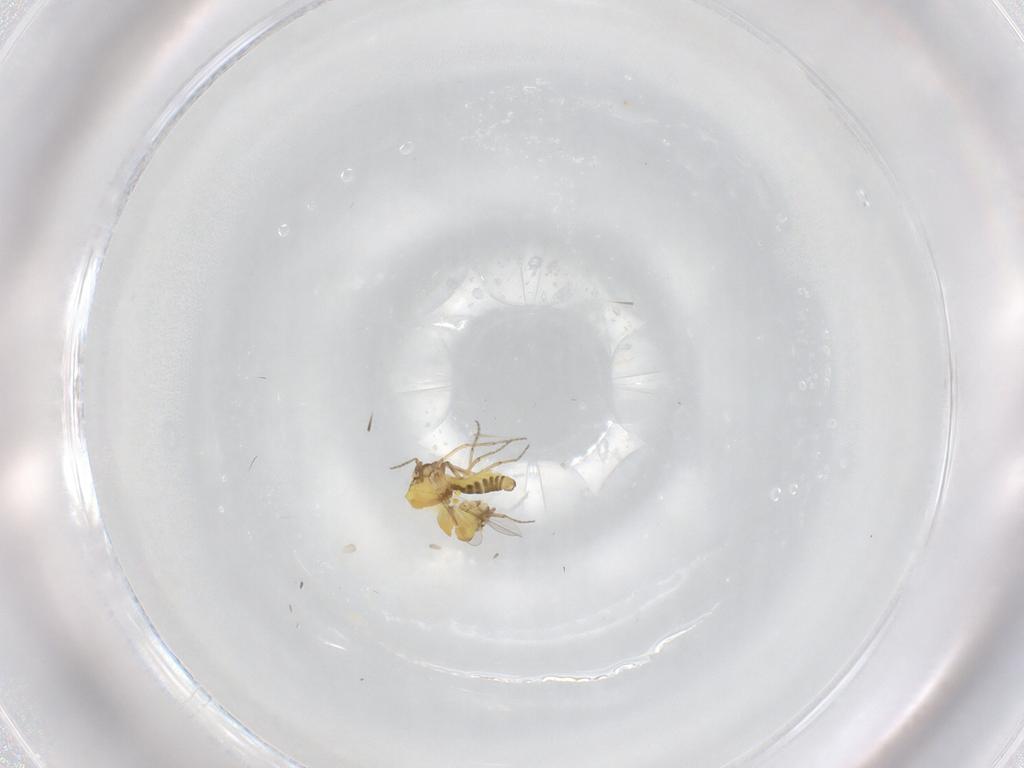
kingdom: Animalia
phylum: Arthropoda
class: Insecta
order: Diptera
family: Ceratopogonidae
